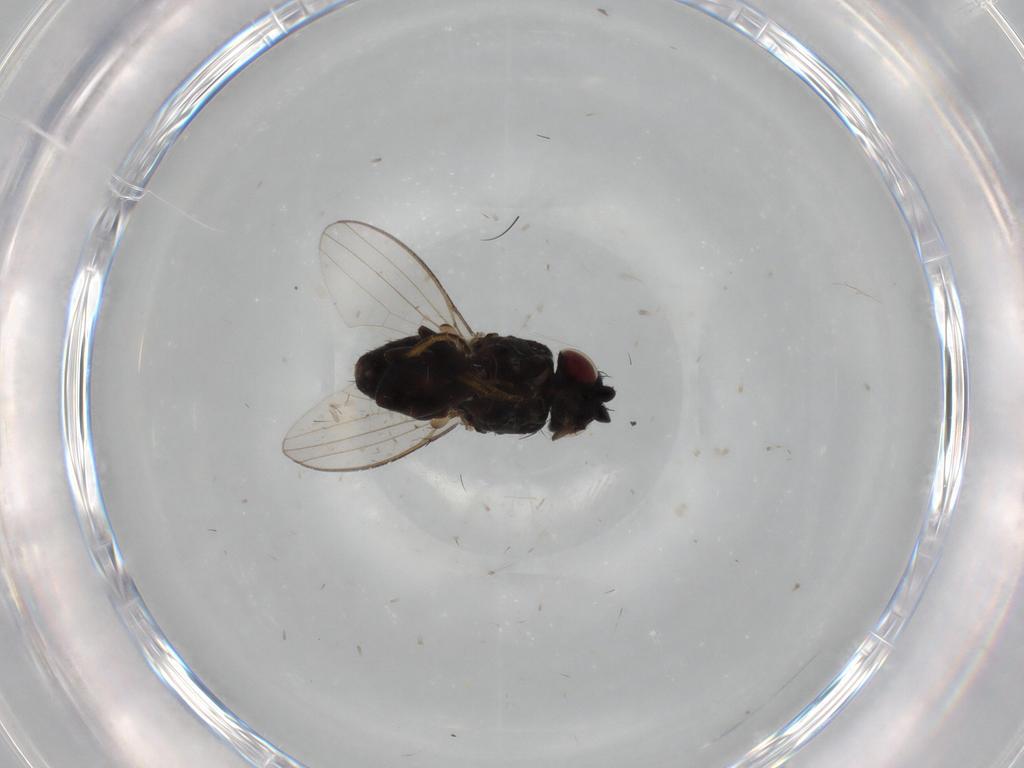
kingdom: Animalia
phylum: Arthropoda
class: Insecta
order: Diptera
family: Milichiidae
